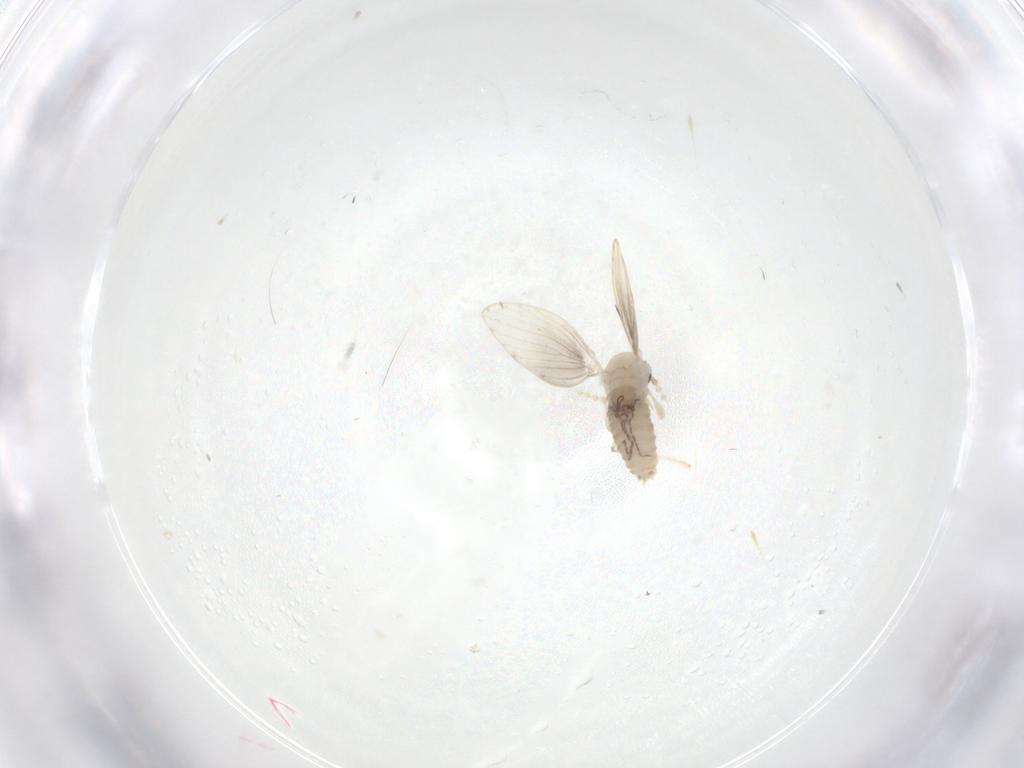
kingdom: Animalia
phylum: Arthropoda
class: Insecta
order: Diptera
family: Psychodidae
